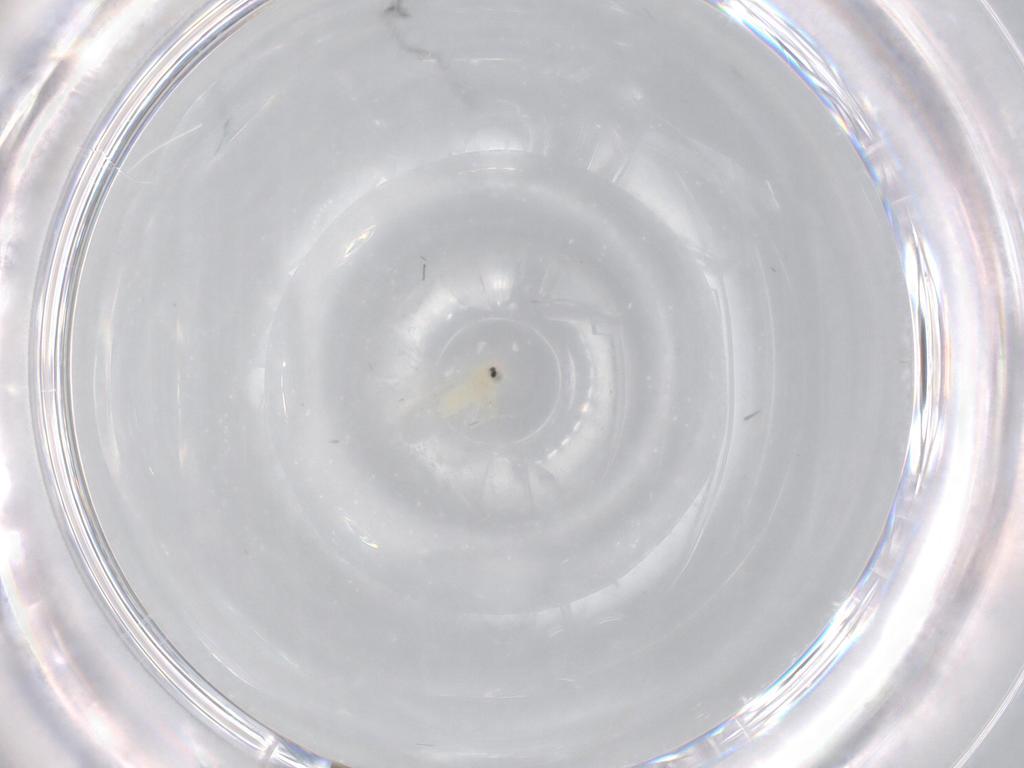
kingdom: Animalia
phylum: Arthropoda
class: Insecta
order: Hemiptera
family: Aleyrodidae
